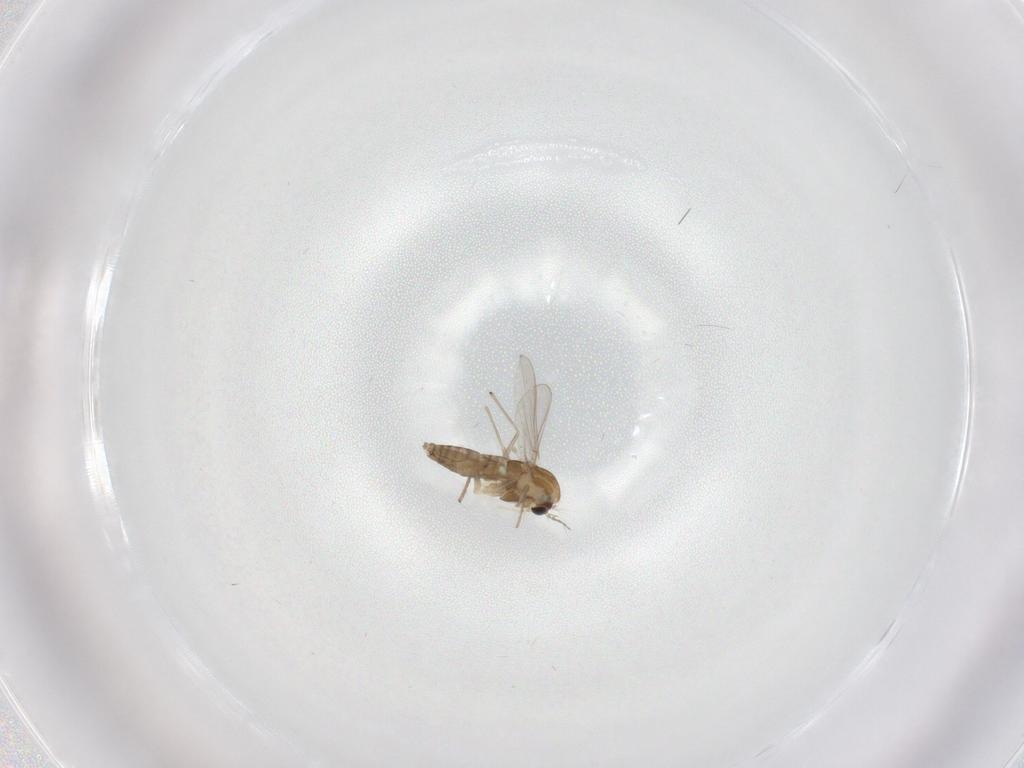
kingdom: Animalia
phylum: Arthropoda
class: Insecta
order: Diptera
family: Chironomidae
